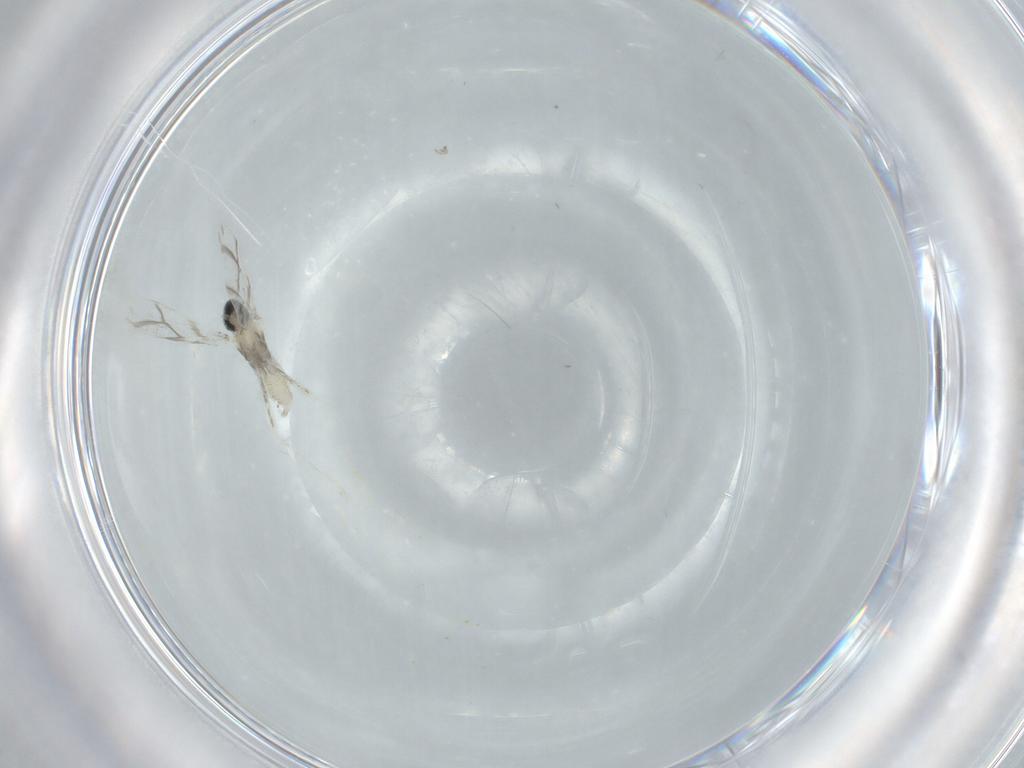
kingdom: Animalia
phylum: Arthropoda
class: Insecta
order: Diptera
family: Cecidomyiidae
